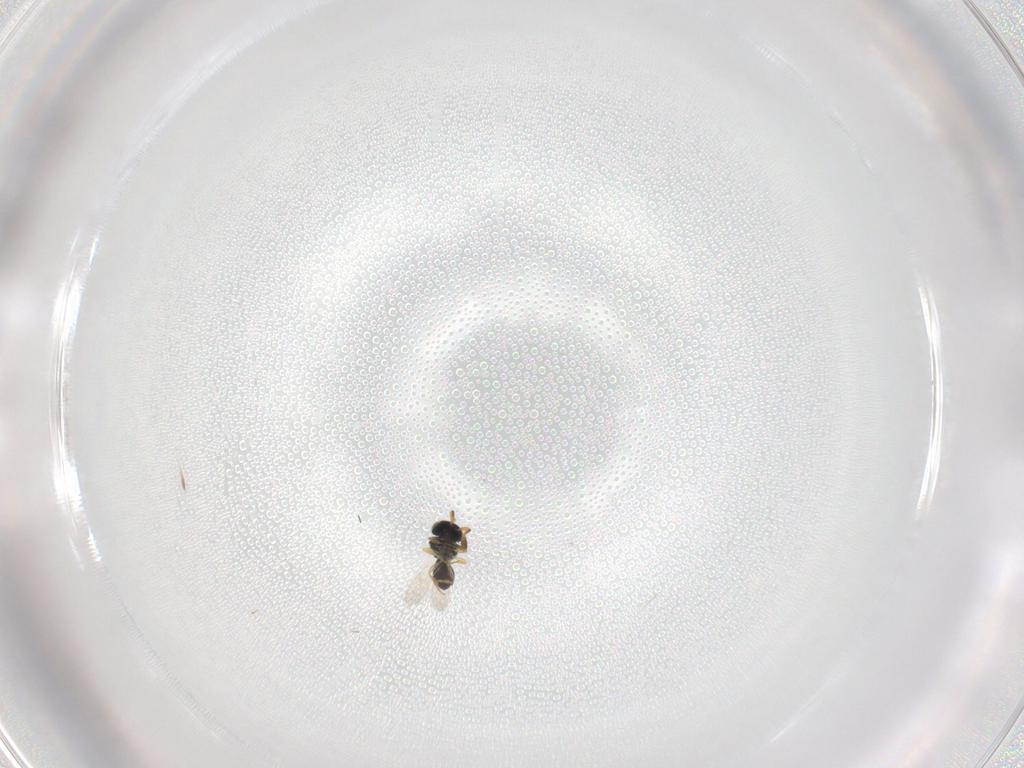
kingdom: Animalia
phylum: Arthropoda
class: Insecta
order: Hymenoptera
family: Scelionidae
